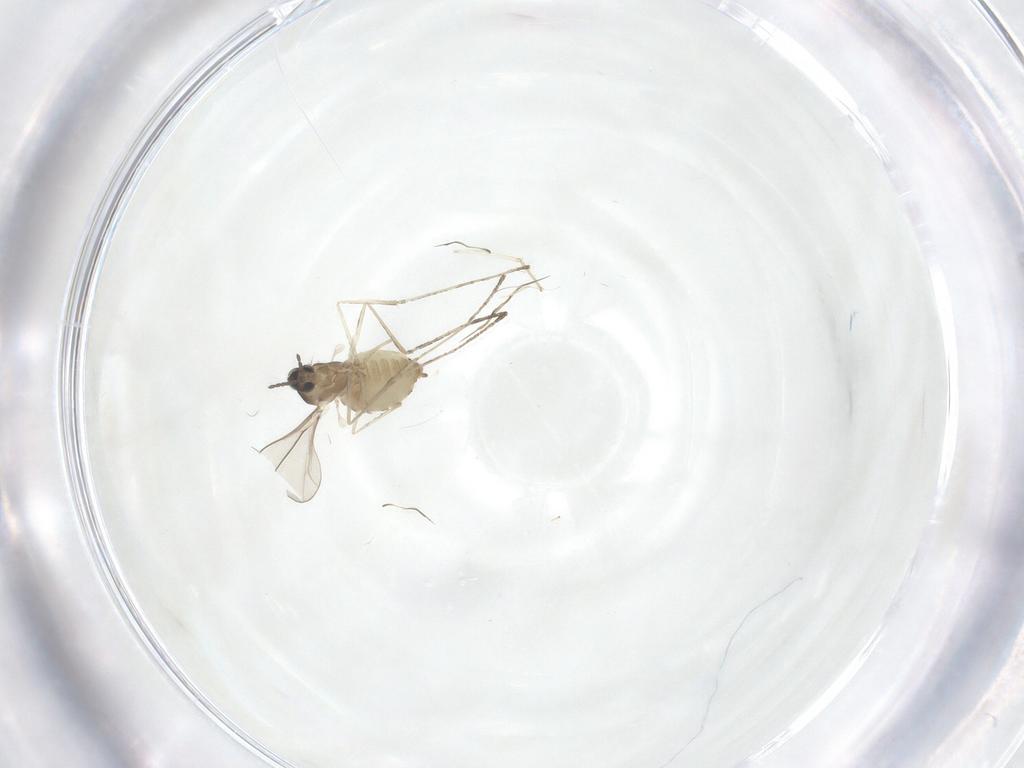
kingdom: Animalia
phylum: Arthropoda
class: Insecta
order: Diptera
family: Cecidomyiidae
